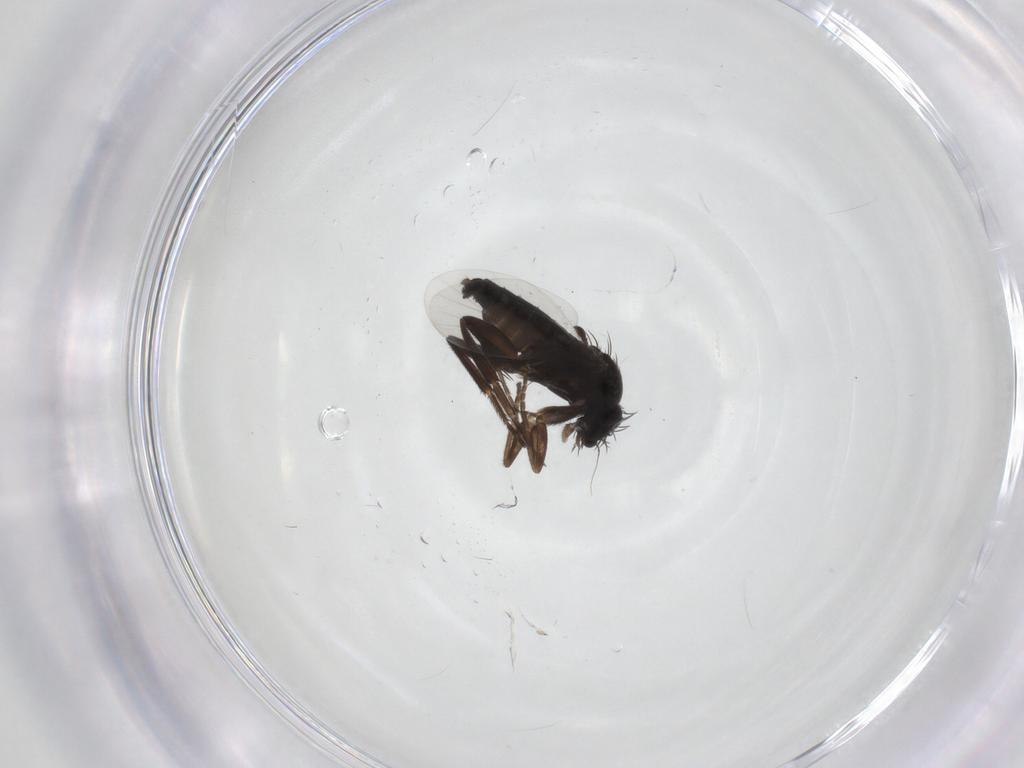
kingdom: Animalia
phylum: Arthropoda
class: Insecta
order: Diptera
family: Phoridae
